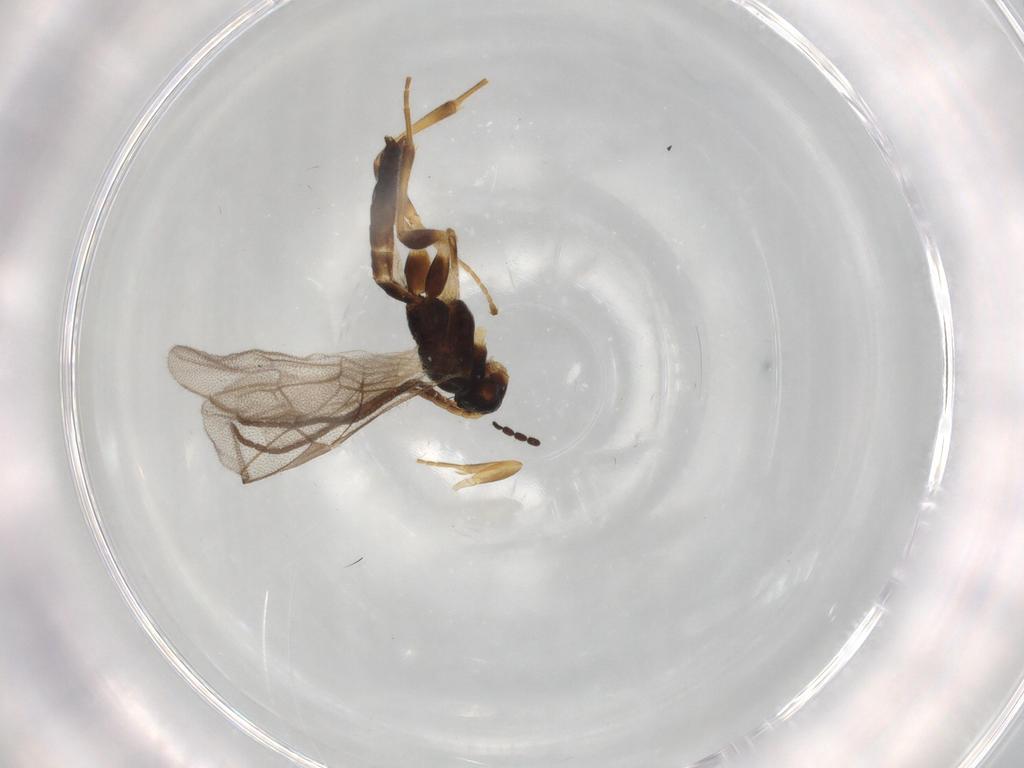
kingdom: Animalia
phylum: Arthropoda
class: Insecta
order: Hymenoptera
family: Ichneumonidae
